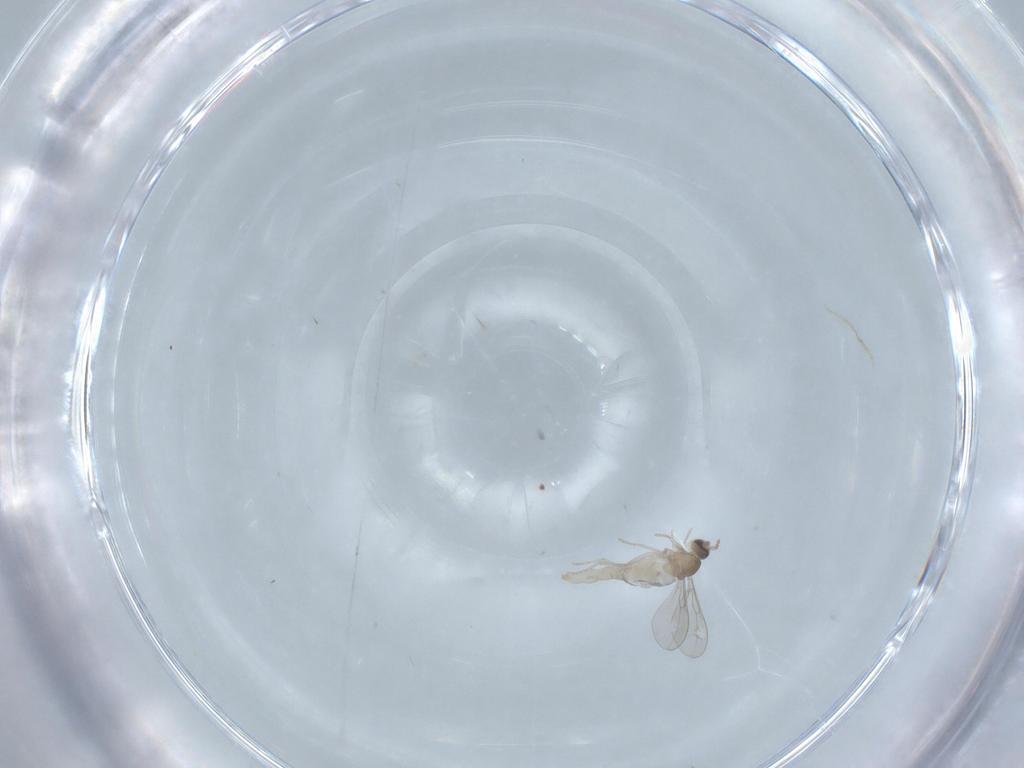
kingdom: Animalia
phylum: Arthropoda
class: Insecta
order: Diptera
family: Cecidomyiidae
